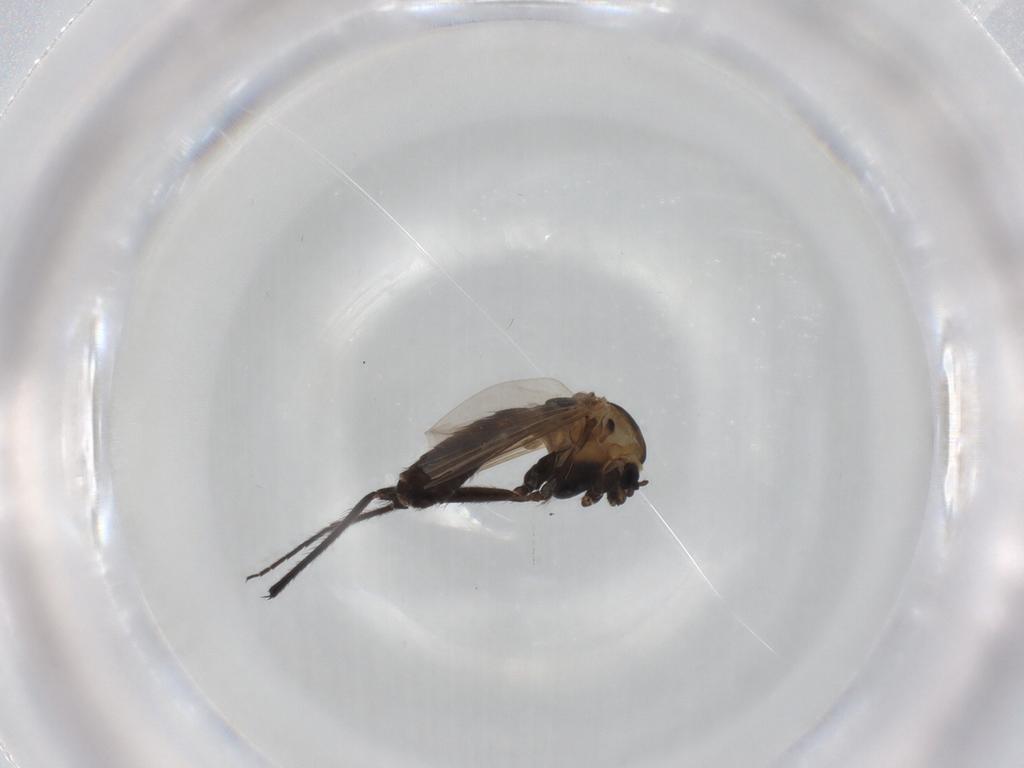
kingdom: Animalia
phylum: Arthropoda
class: Insecta
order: Diptera
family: Chironomidae
